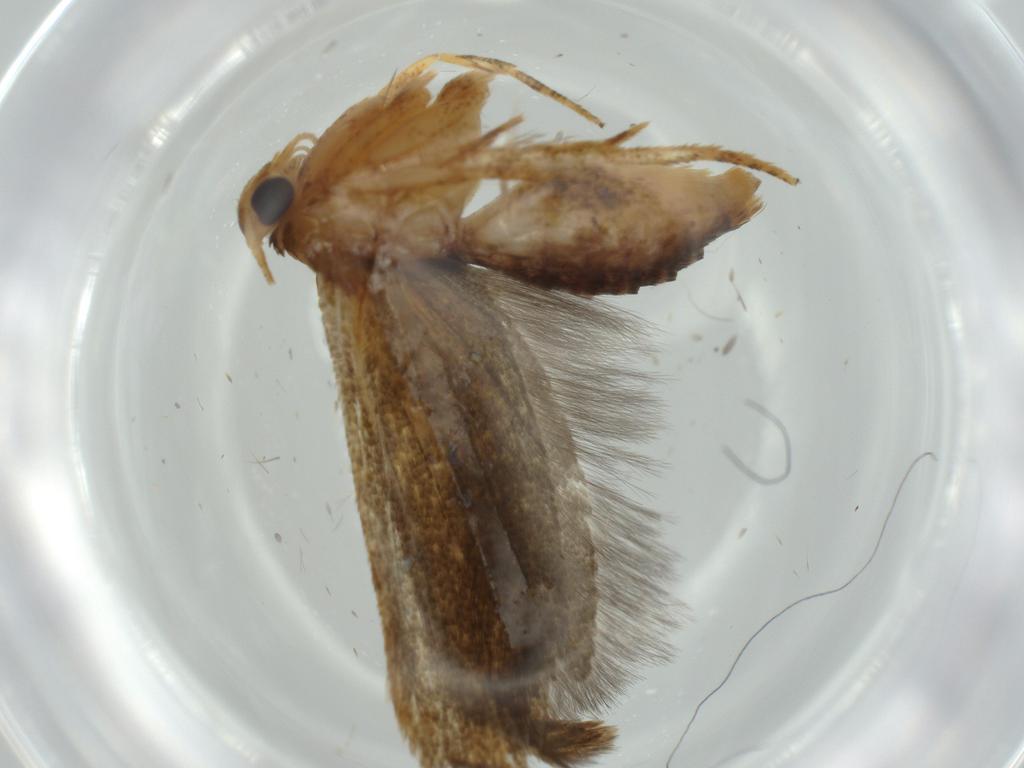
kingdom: Animalia
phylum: Arthropoda
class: Insecta
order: Lepidoptera
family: Cosmopterigidae
